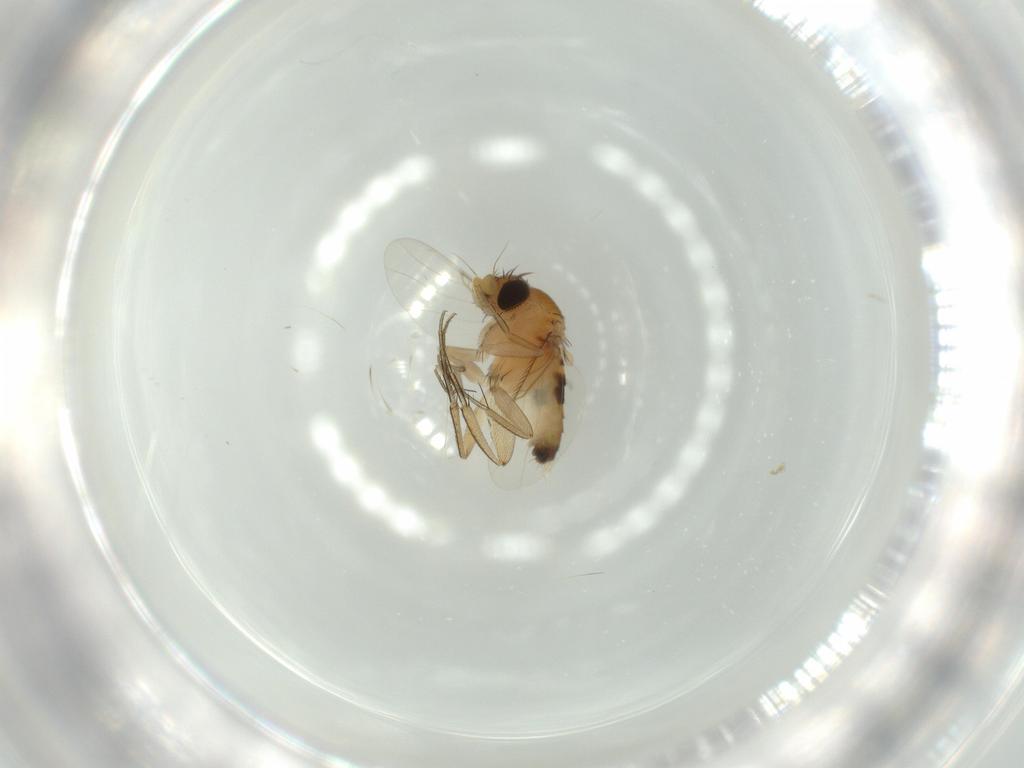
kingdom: Animalia
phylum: Arthropoda
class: Insecta
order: Diptera
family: Phoridae
